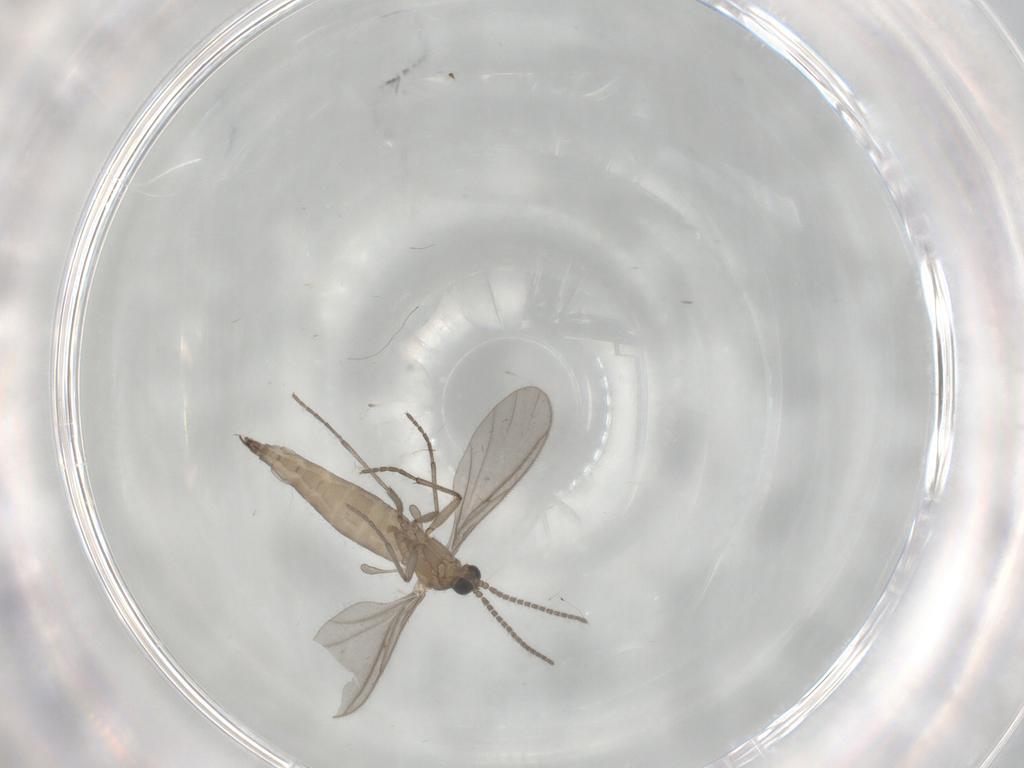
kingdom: Animalia
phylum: Arthropoda
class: Insecta
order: Diptera
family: Sciaridae
